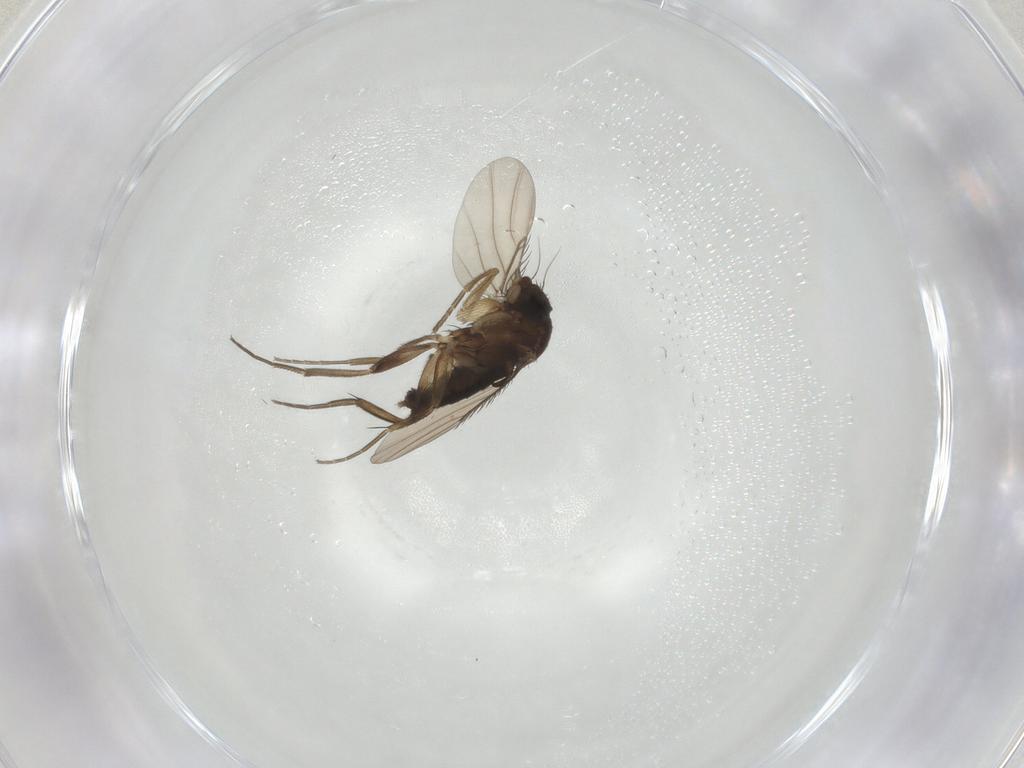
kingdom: Animalia
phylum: Arthropoda
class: Insecta
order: Diptera
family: Phoridae
